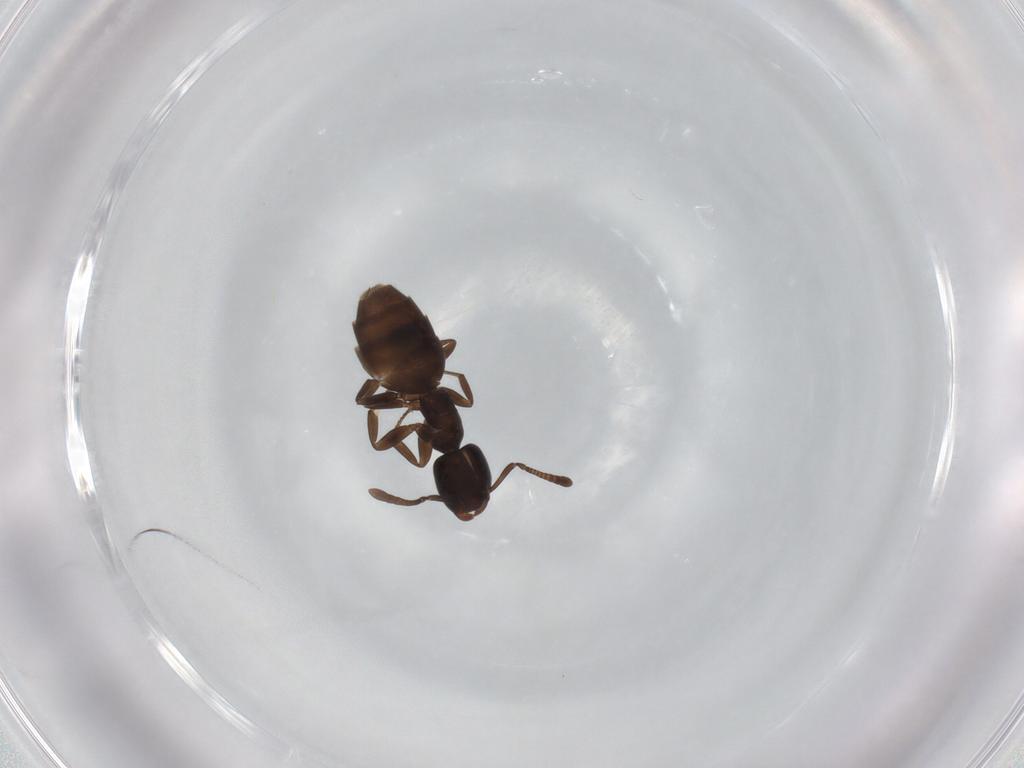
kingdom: Animalia
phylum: Arthropoda
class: Insecta
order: Hymenoptera
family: Formicidae
